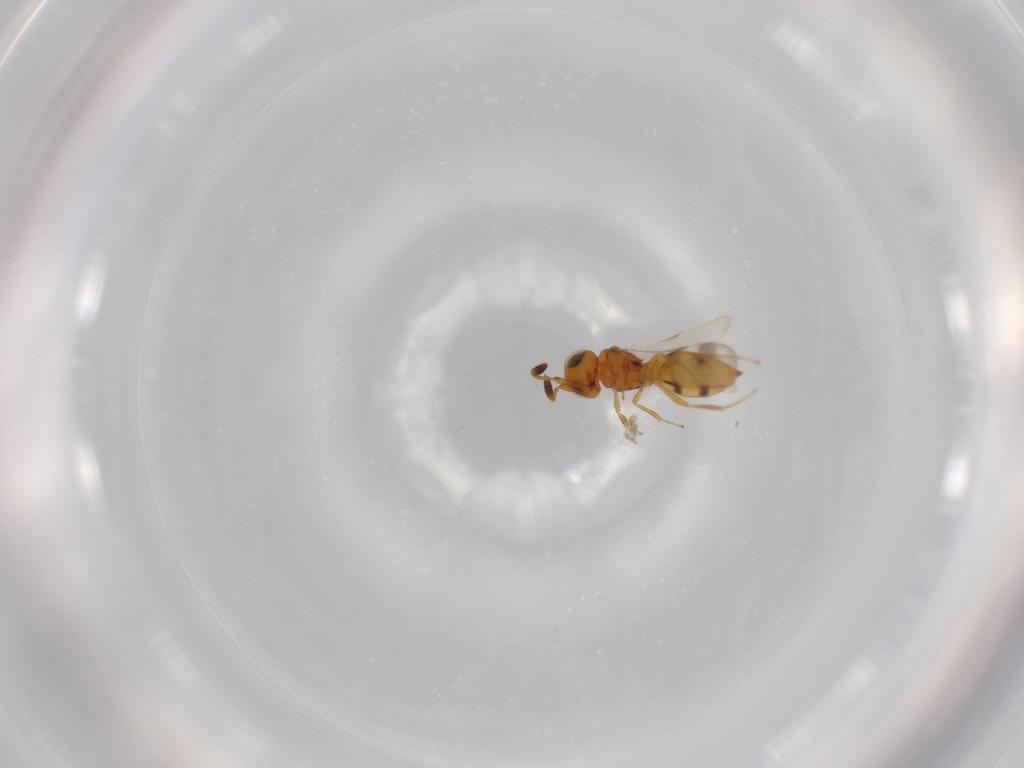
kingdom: Animalia
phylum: Arthropoda
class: Insecta
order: Hymenoptera
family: Scelionidae
